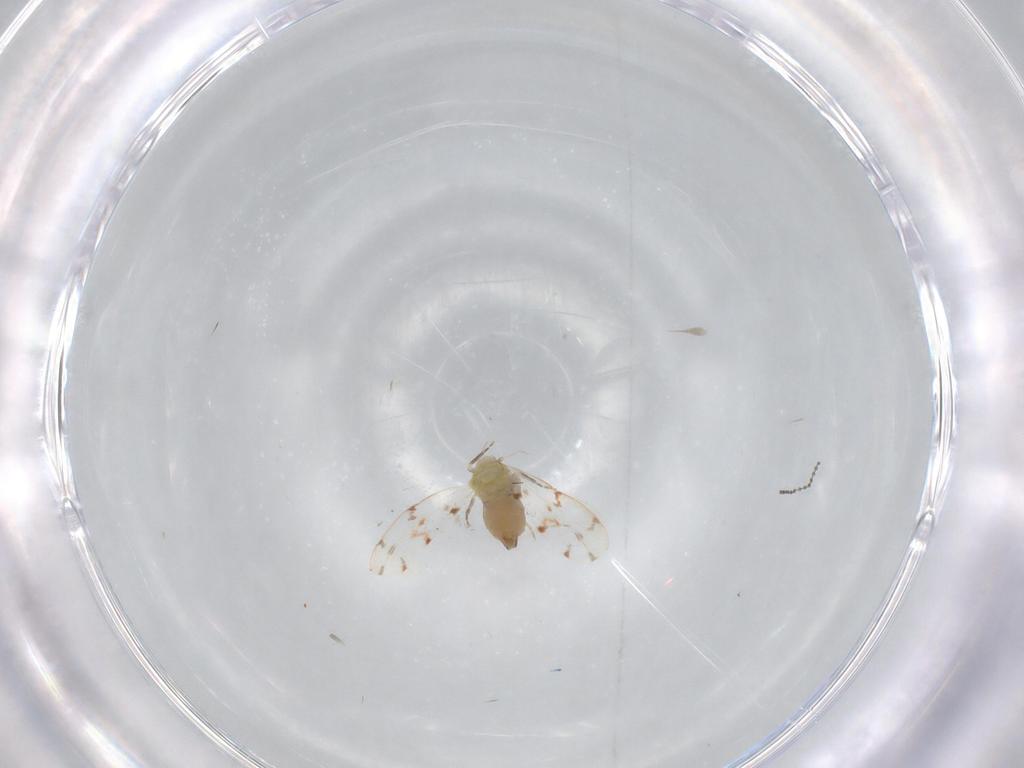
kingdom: Animalia
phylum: Arthropoda
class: Insecta
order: Hemiptera
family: Aleyrodidae
